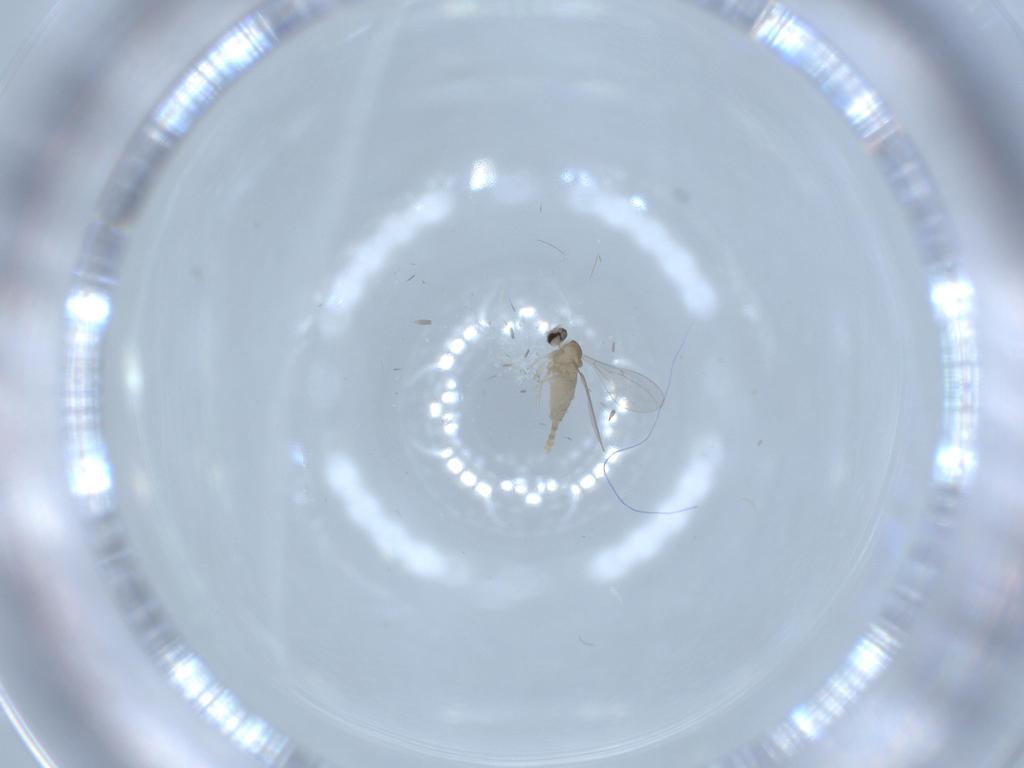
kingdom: Animalia
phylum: Arthropoda
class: Insecta
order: Diptera
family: Cecidomyiidae
